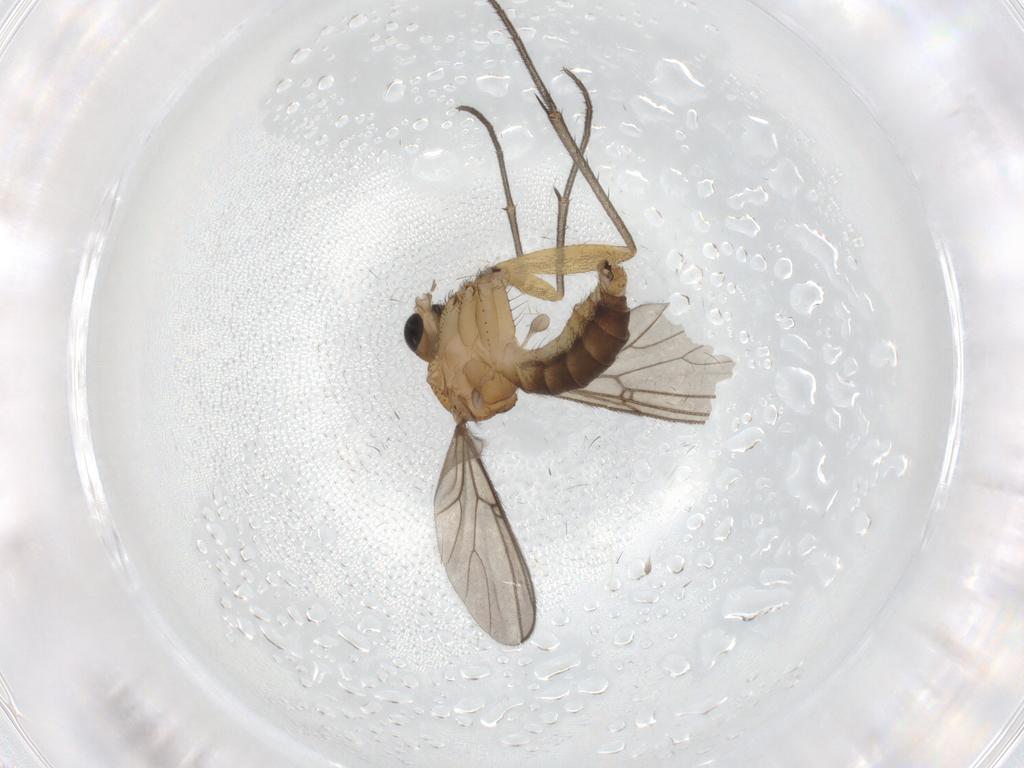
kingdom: Animalia
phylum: Arthropoda
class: Insecta
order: Diptera
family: Mycetophilidae
